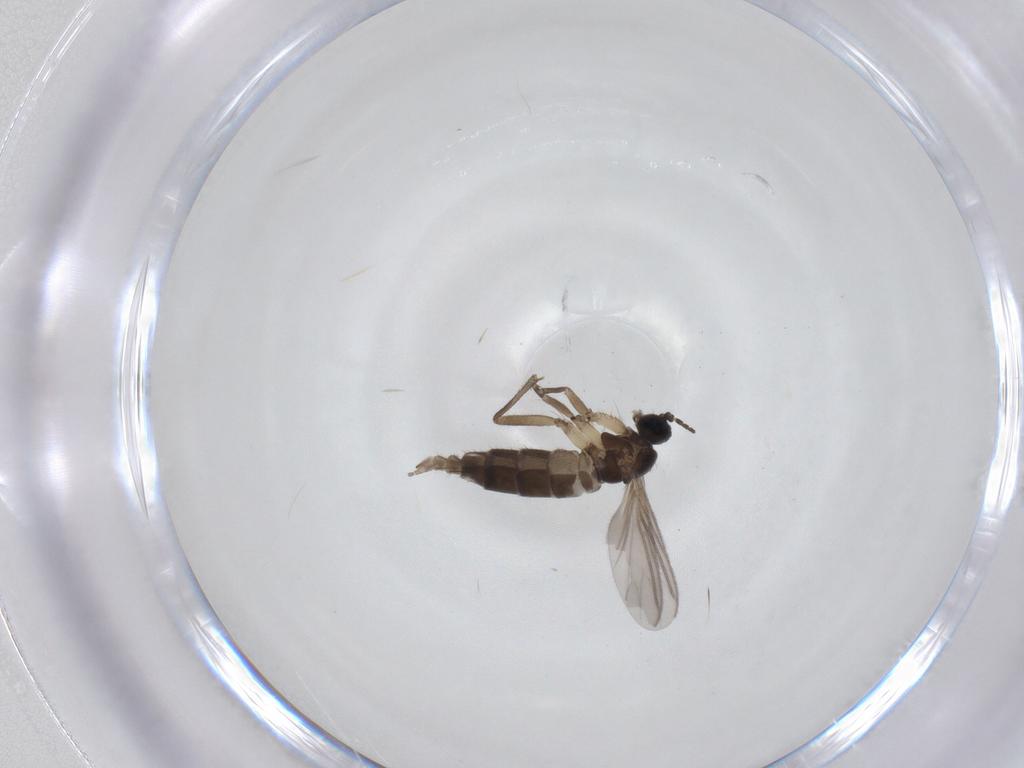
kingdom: Animalia
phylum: Arthropoda
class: Insecta
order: Diptera
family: Sciaridae
